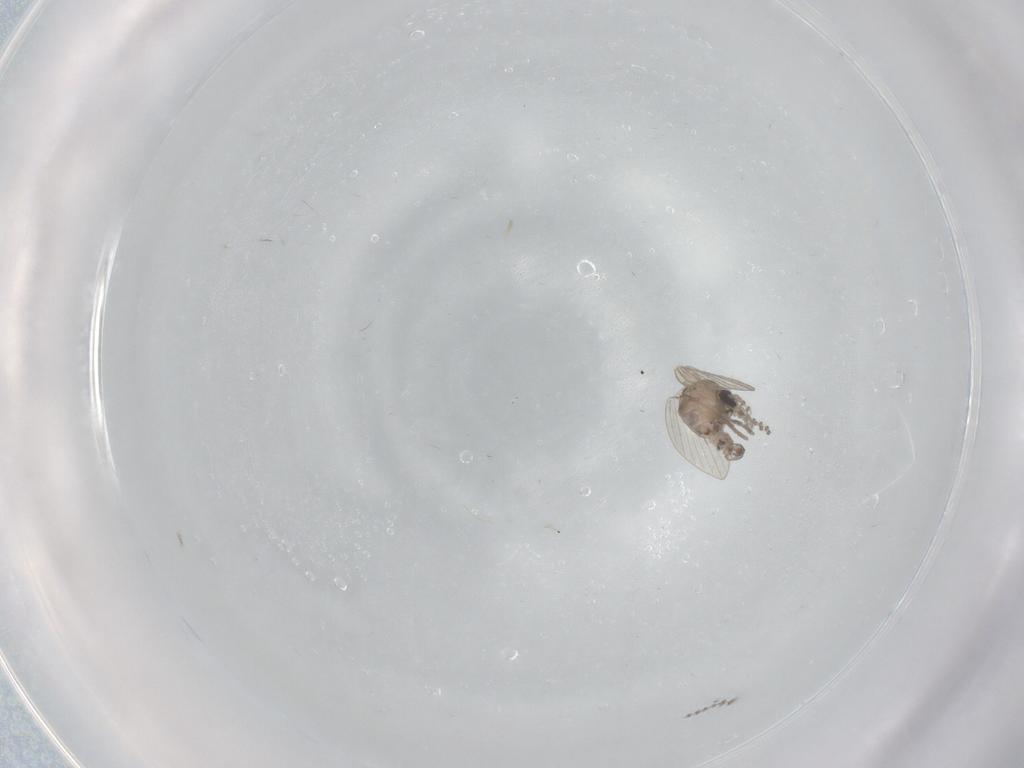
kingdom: Animalia
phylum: Arthropoda
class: Insecta
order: Diptera
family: Psychodidae
